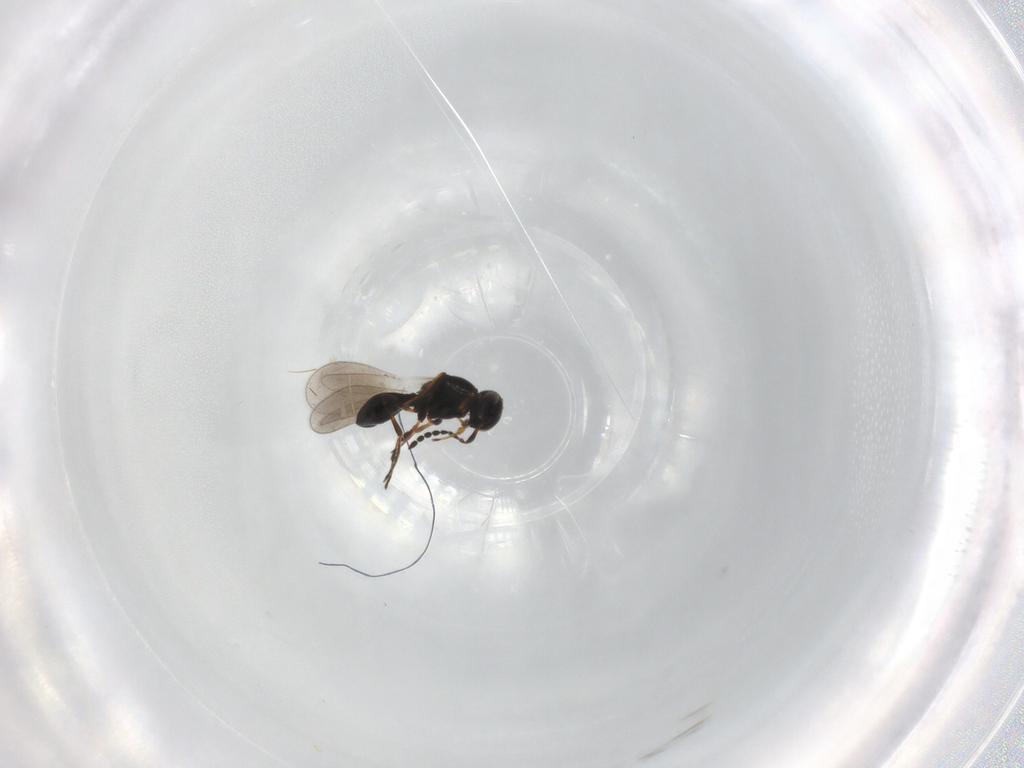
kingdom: Animalia
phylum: Arthropoda
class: Insecta
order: Hymenoptera
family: Platygastridae
